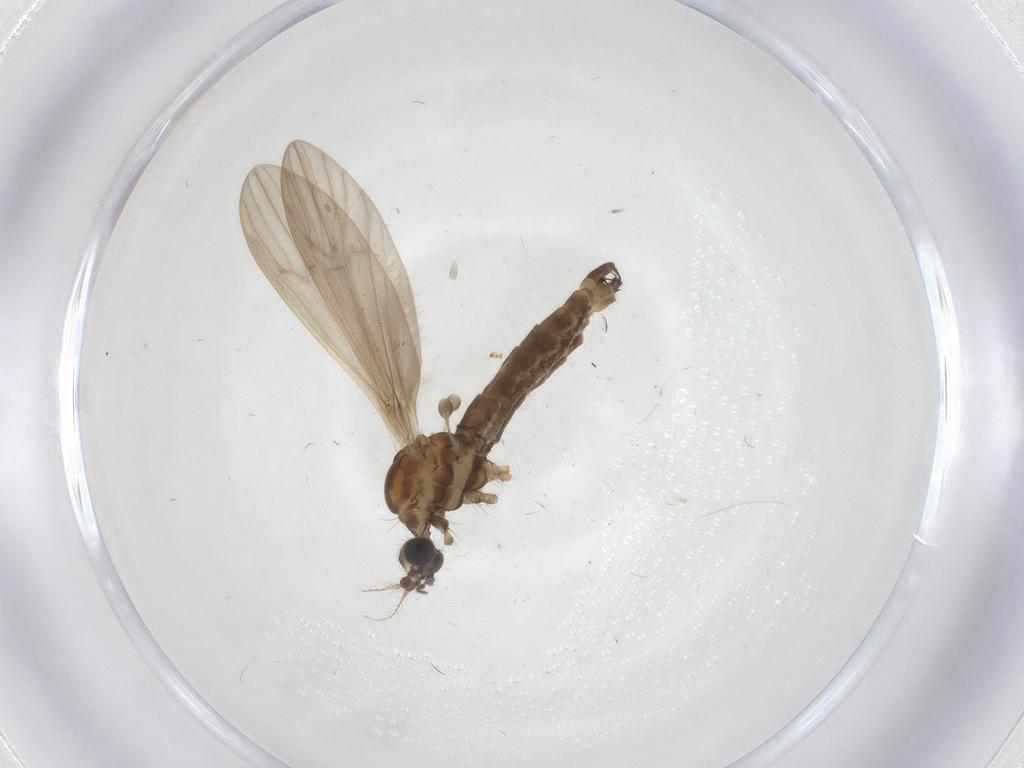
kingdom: Animalia
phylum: Arthropoda
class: Insecta
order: Diptera
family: Limoniidae
